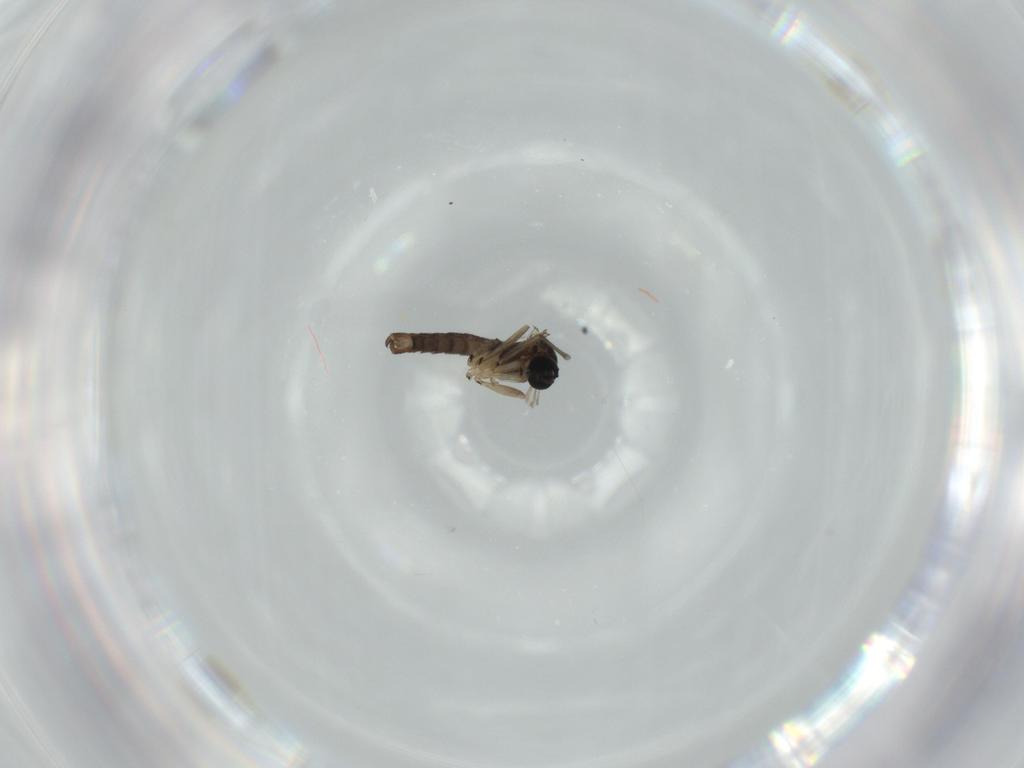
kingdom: Animalia
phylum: Arthropoda
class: Insecta
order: Diptera
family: Sciaridae
